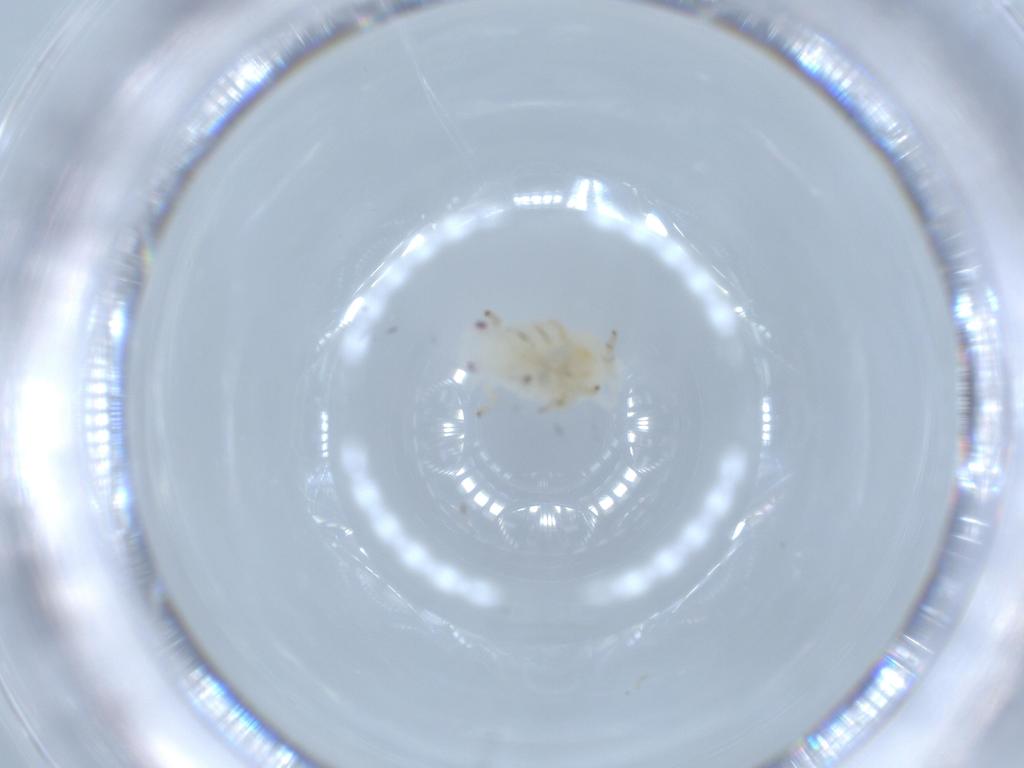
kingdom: Animalia
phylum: Arthropoda
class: Insecta
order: Hemiptera
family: Flatidae
